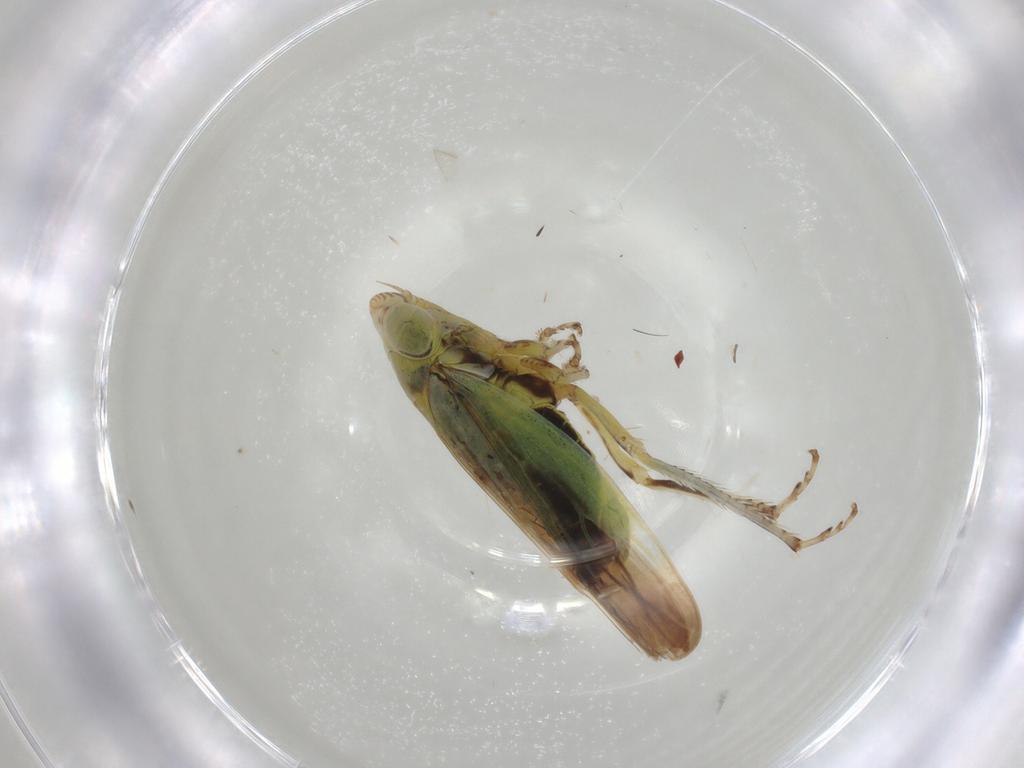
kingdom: Animalia
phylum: Arthropoda
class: Insecta
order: Hemiptera
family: Cicadellidae
